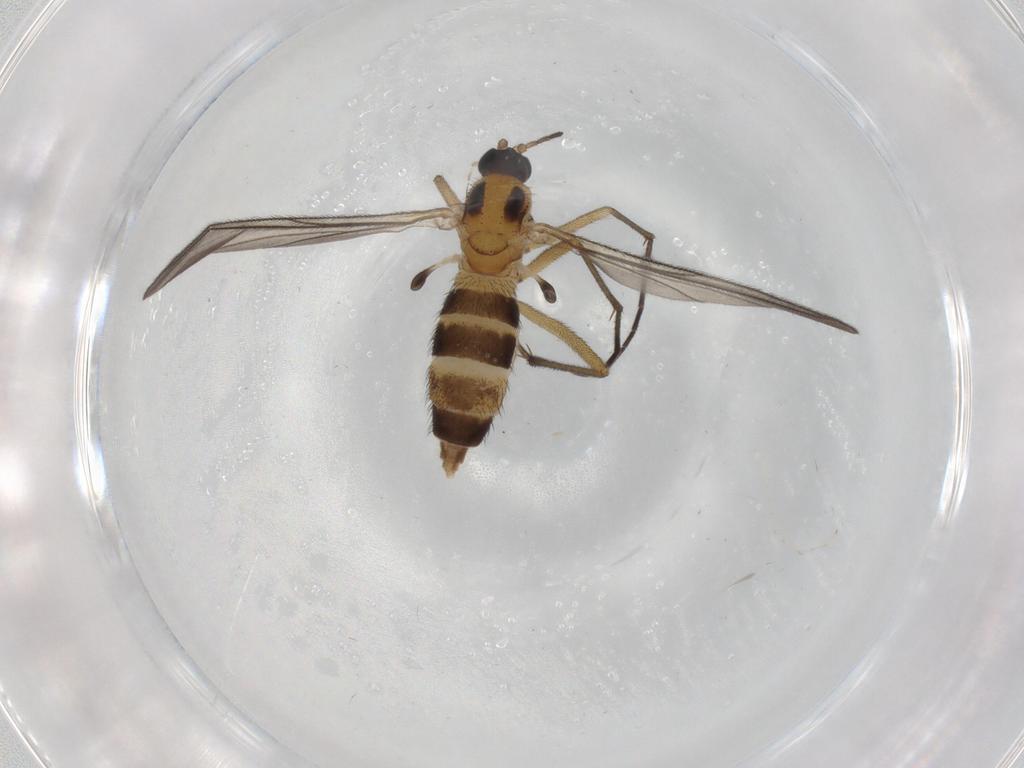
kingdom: Animalia
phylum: Arthropoda
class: Insecta
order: Diptera
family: Sciaridae
